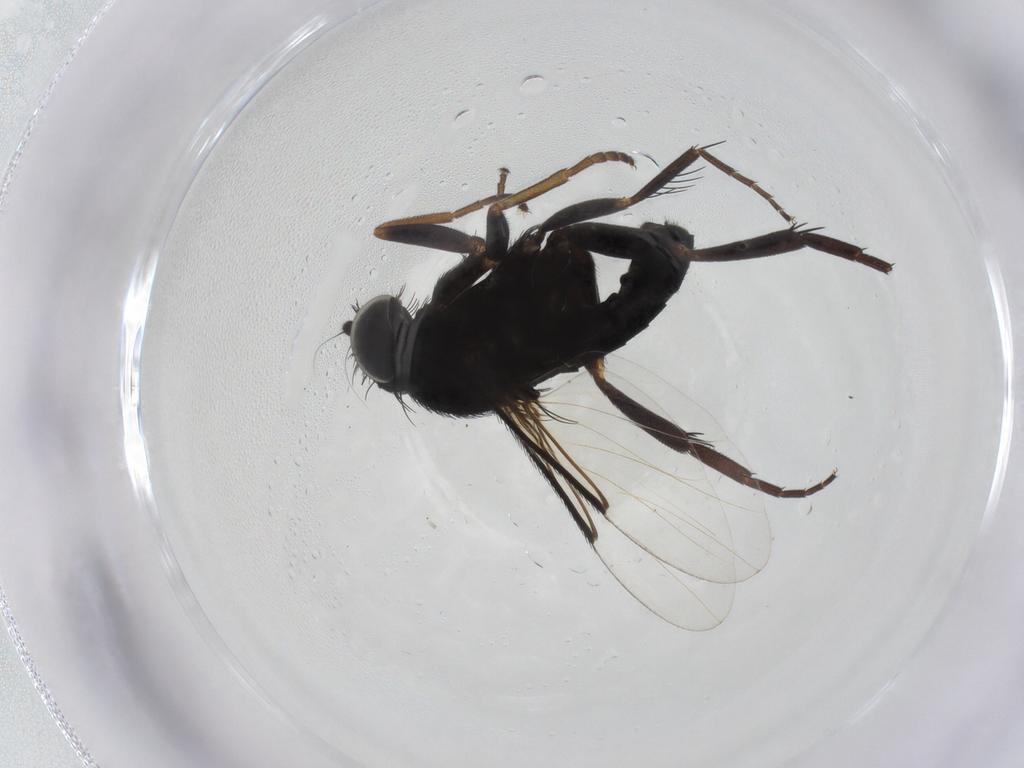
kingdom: Animalia
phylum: Arthropoda
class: Insecta
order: Diptera
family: Phoridae
